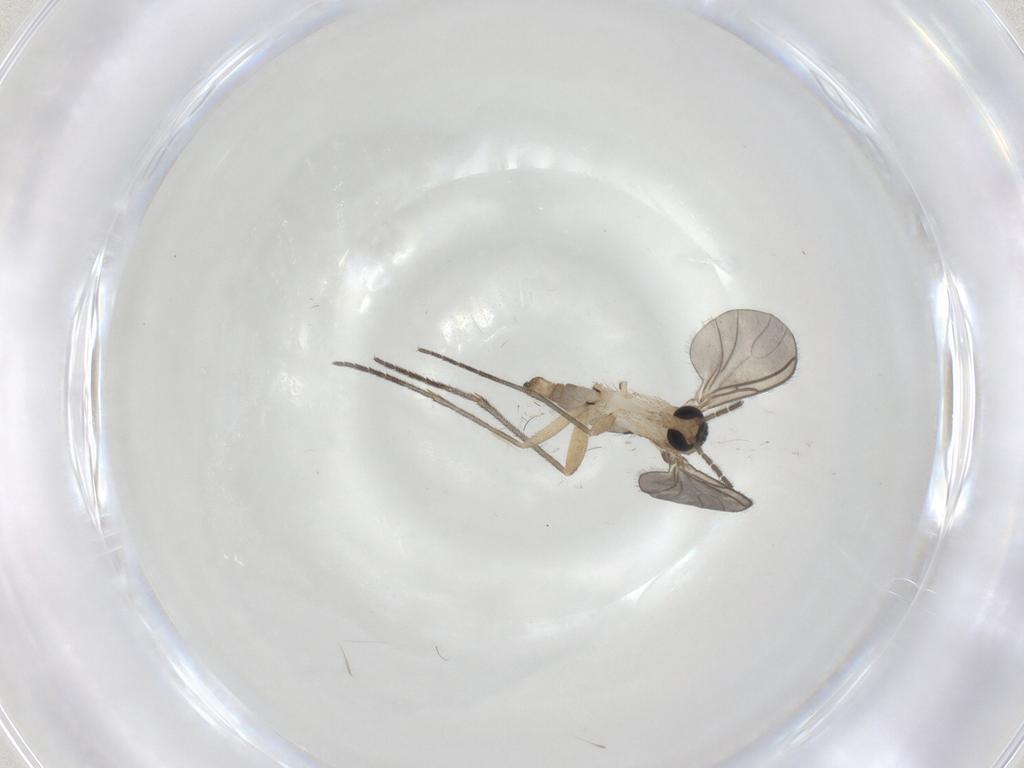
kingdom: Animalia
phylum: Arthropoda
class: Insecta
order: Diptera
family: Sciaridae
